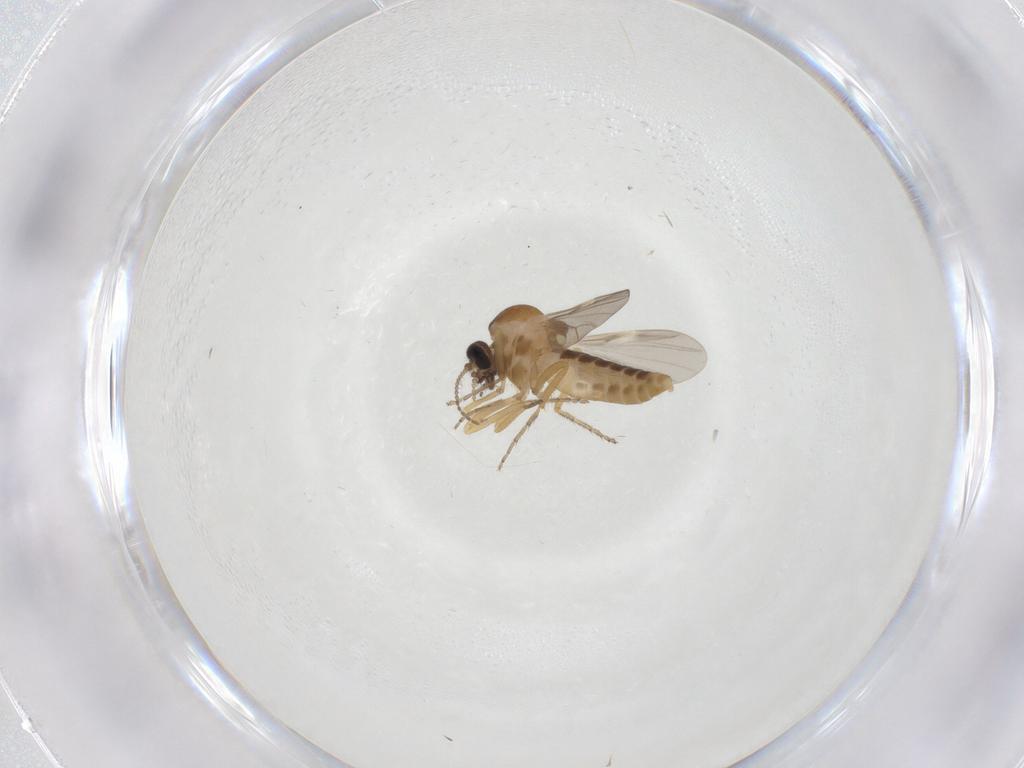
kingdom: Animalia
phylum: Arthropoda
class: Insecta
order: Diptera
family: Ceratopogonidae
